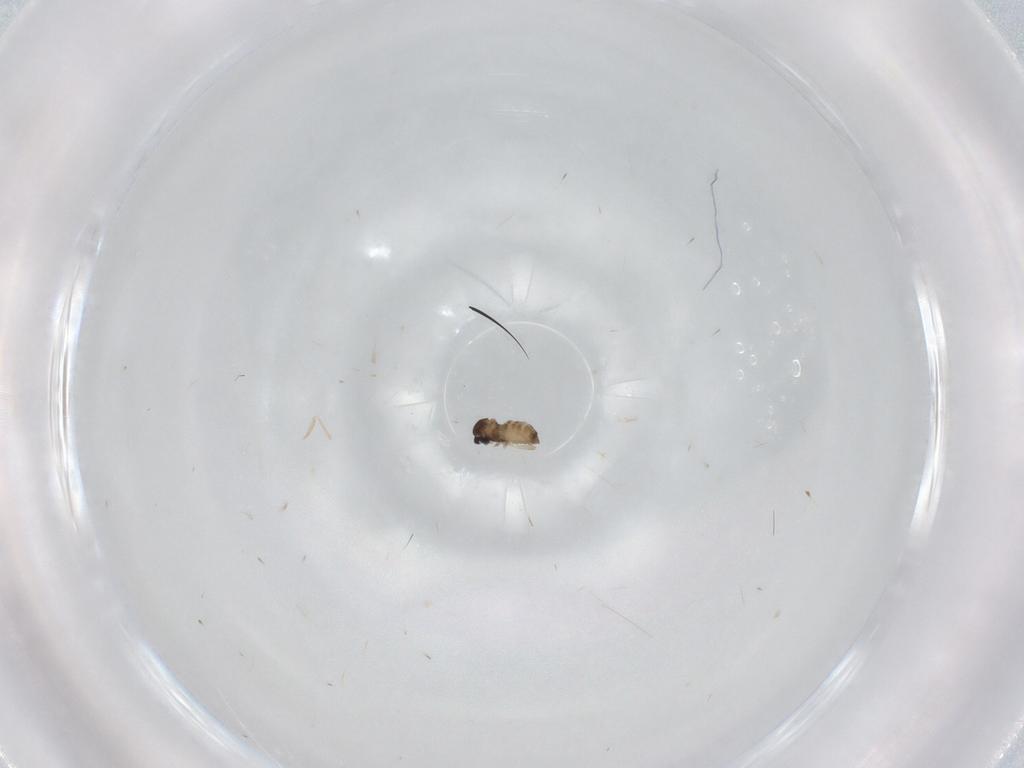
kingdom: Animalia
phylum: Arthropoda
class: Insecta
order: Diptera
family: Cecidomyiidae
